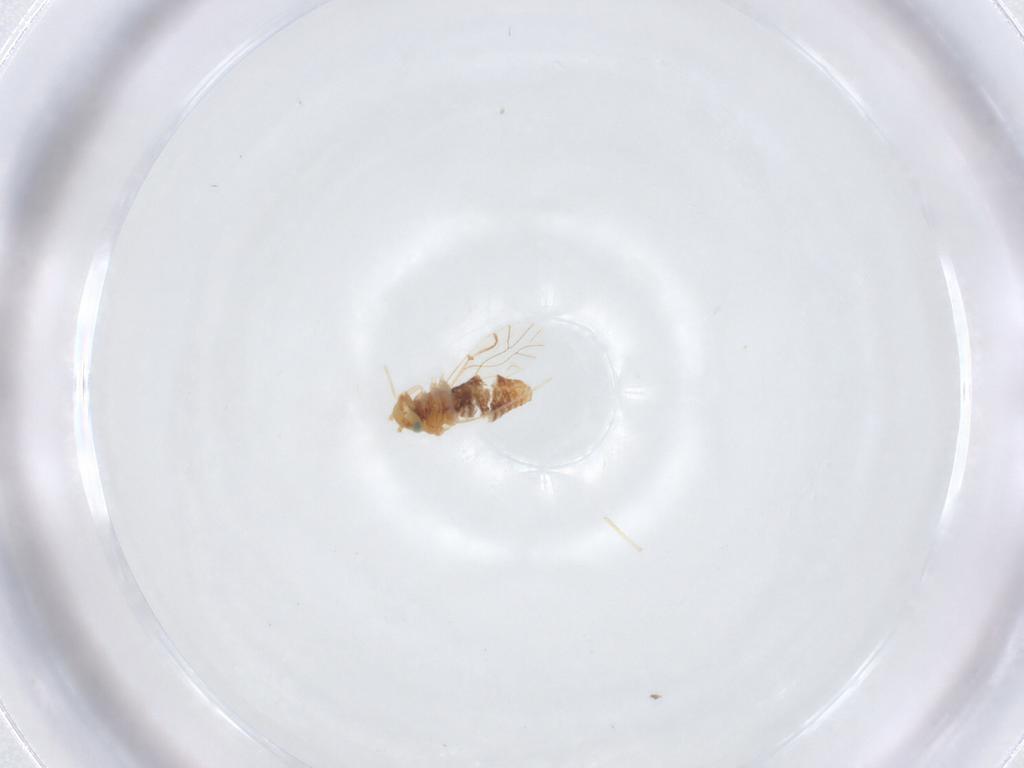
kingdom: Animalia
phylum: Arthropoda
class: Insecta
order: Psocodea
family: Lachesillidae
